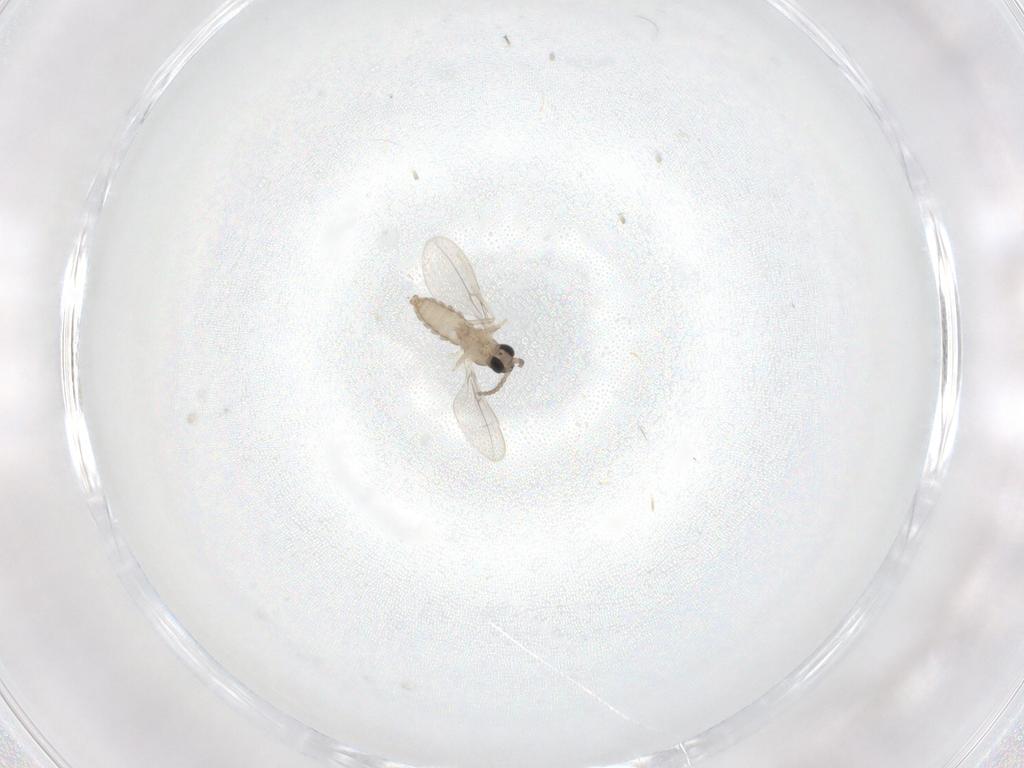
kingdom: Animalia
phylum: Arthropoda
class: Insecta
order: Diptera
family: Cecidomyiidae
